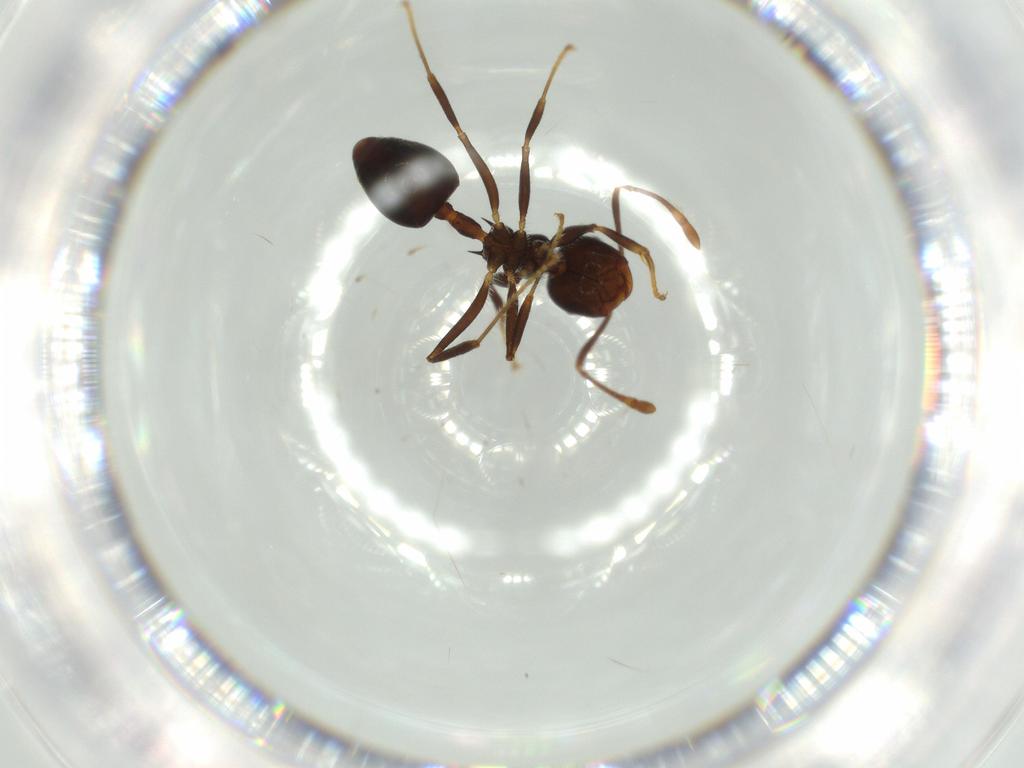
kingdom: Animalia
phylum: Arthropoda
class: Insecta
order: Hymenoptera
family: Formicidae
